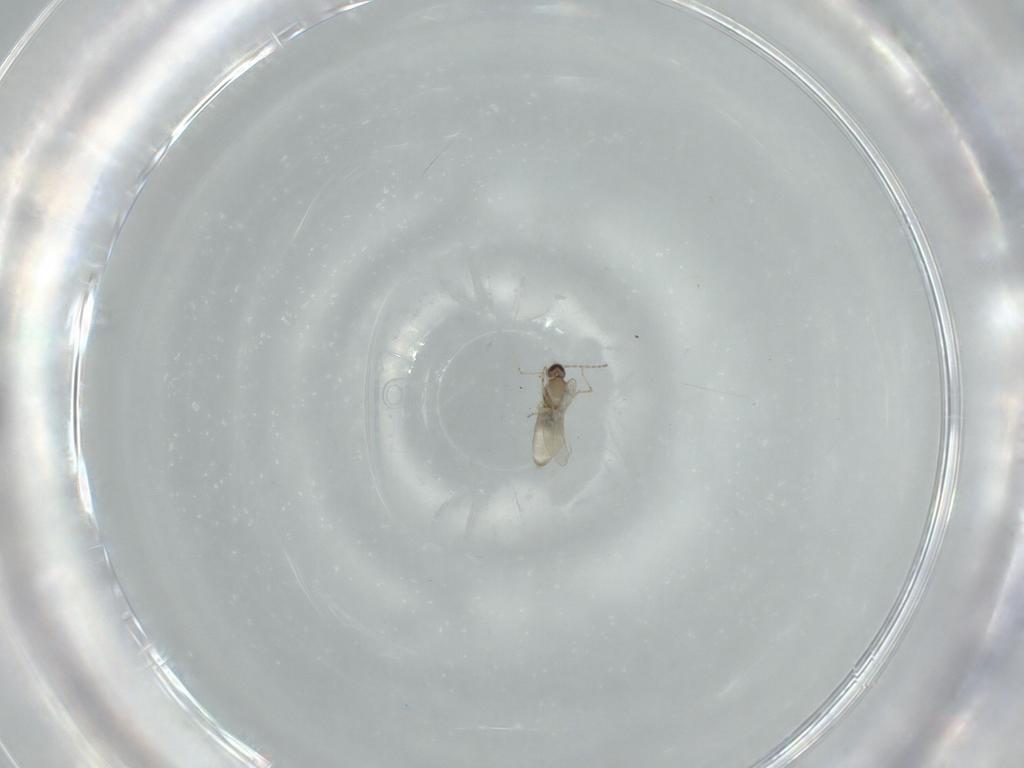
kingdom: Animalia
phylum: Arthropoda
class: Insecta
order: Diptera
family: Cecidomyiidae
